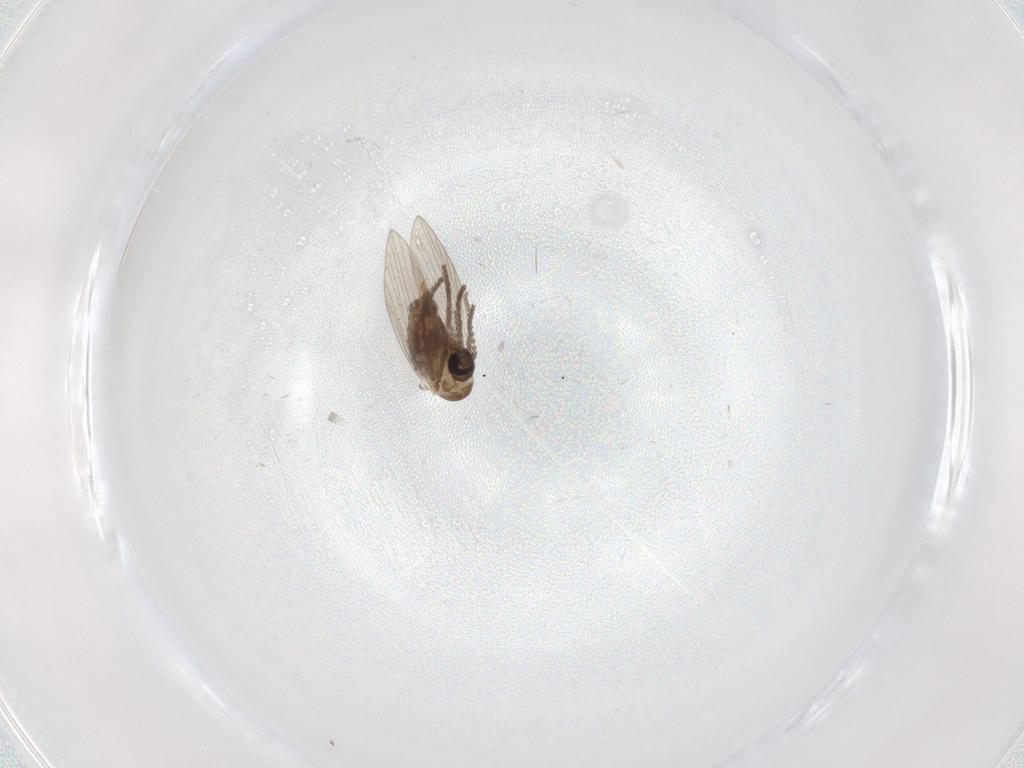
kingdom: Animalia
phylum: Arthropoda
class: Insecta
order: Diptera
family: Psychodidae
